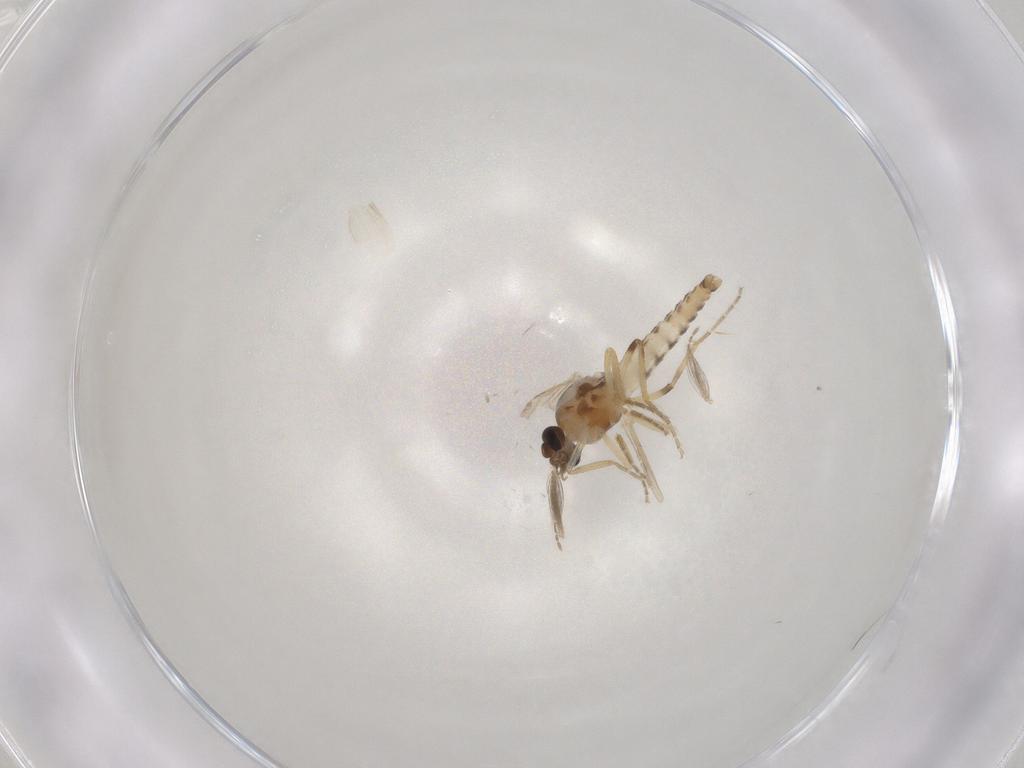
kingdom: Animalia
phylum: Arthropoda
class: Insecta
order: Diptera
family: Ceratopogonidae
